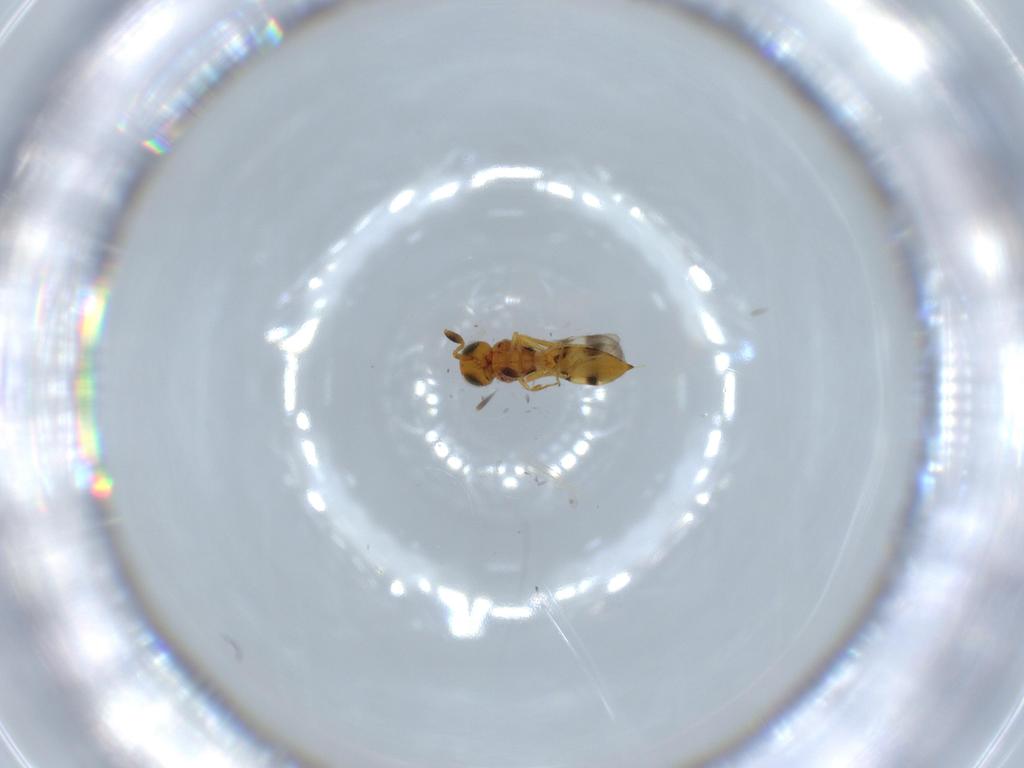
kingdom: Animalia
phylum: Arthropoda
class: Insecta
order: Hymenoptera
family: Scelionidae
